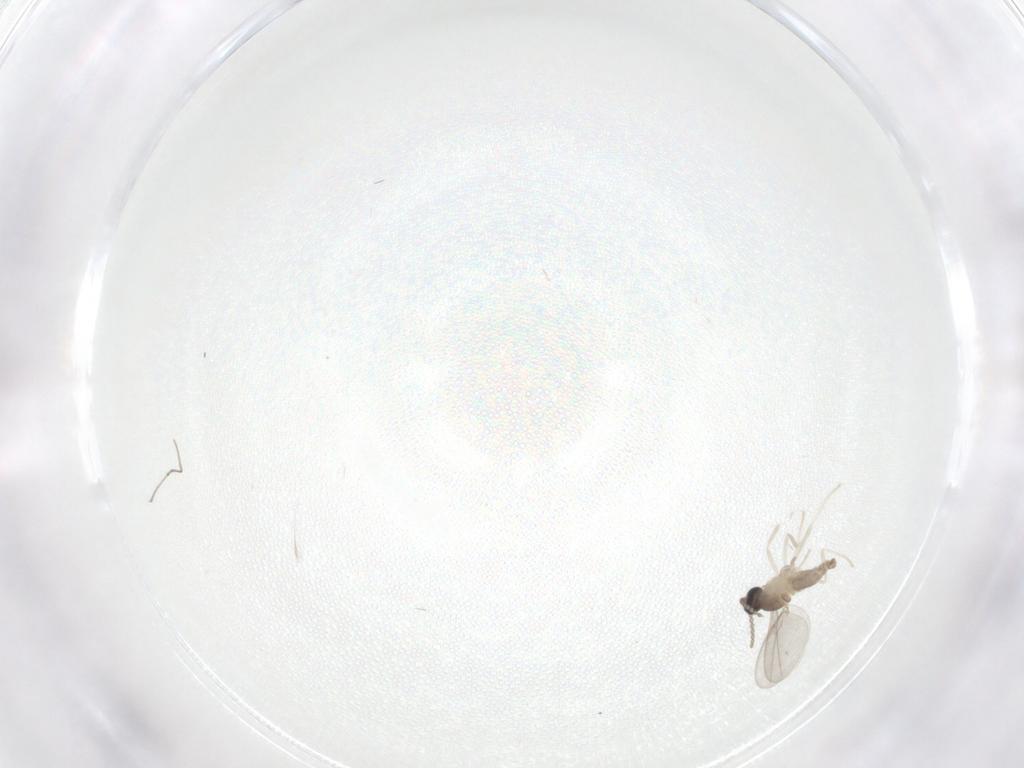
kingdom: Animalia
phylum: Arthropoda
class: Insecta
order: Diptera
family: Cecidomyiidae
